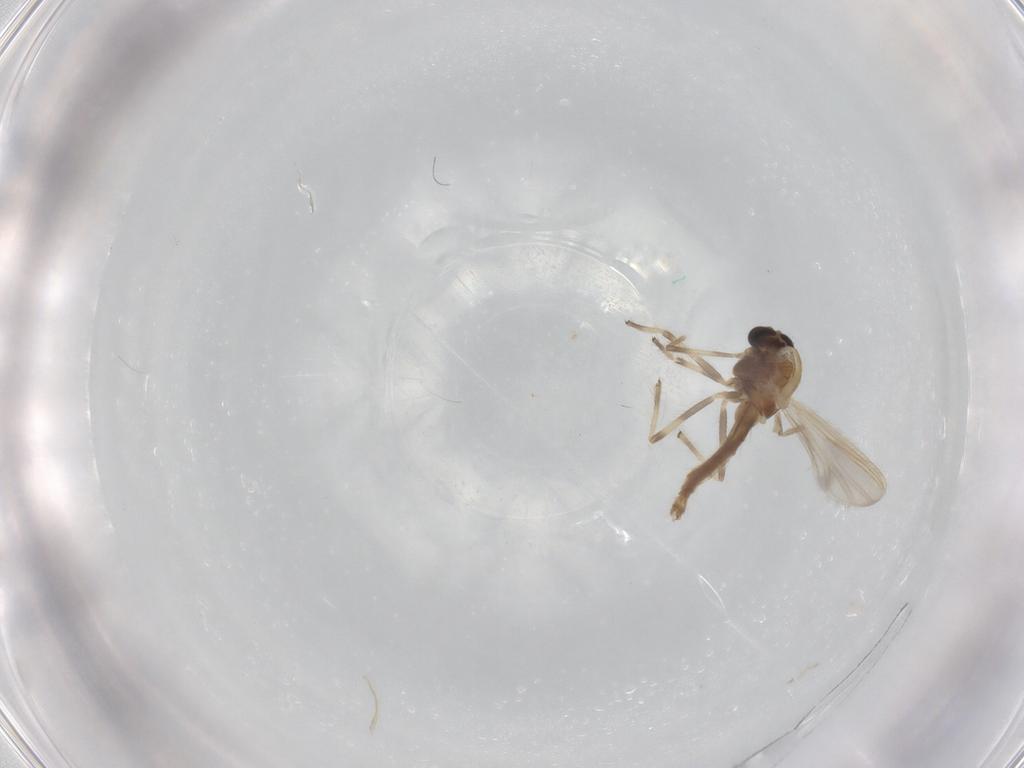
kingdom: Animalia
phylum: Arthropoda
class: Insecta
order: Diptera
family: Chironomidae
